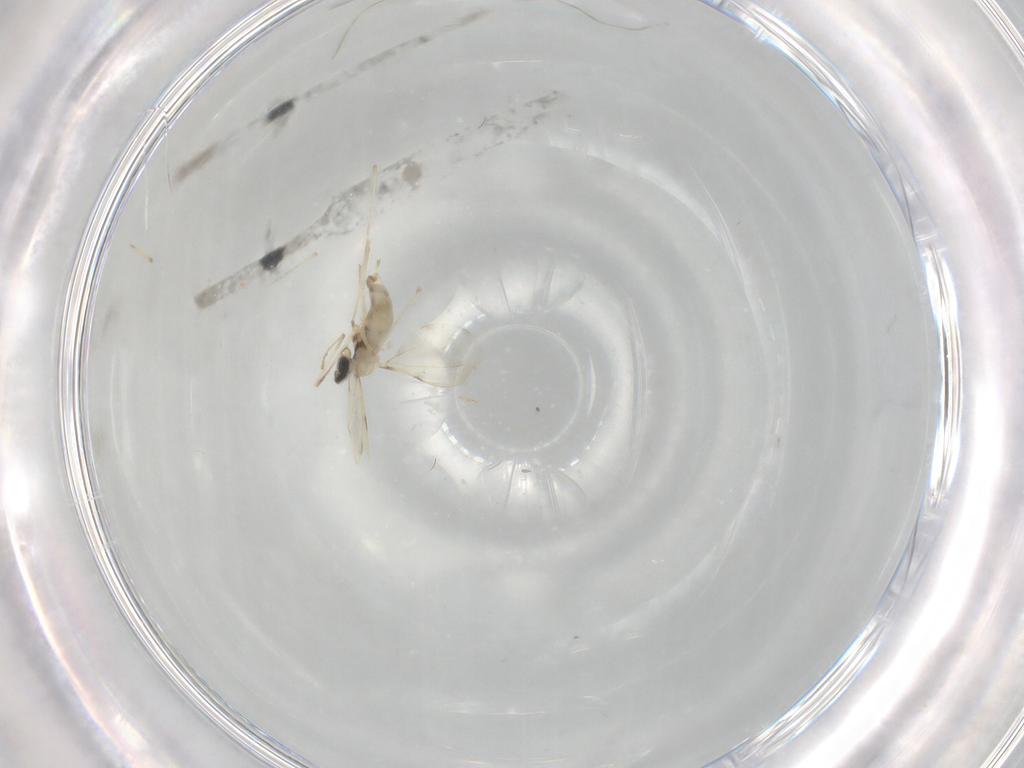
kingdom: Animalia
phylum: Arthropoda
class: Insecta
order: Diptera
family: Cecidomyiidae
